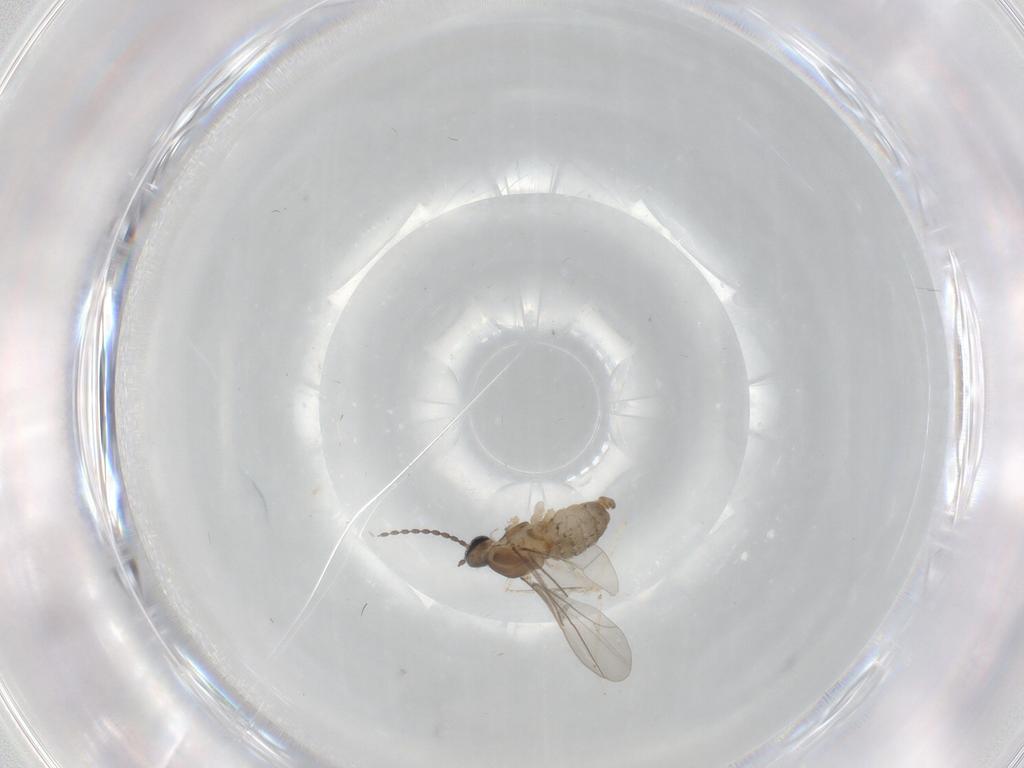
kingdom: Animalia
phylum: Arthropoda
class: Insecta
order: Diptera
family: Cecidomyiidae
